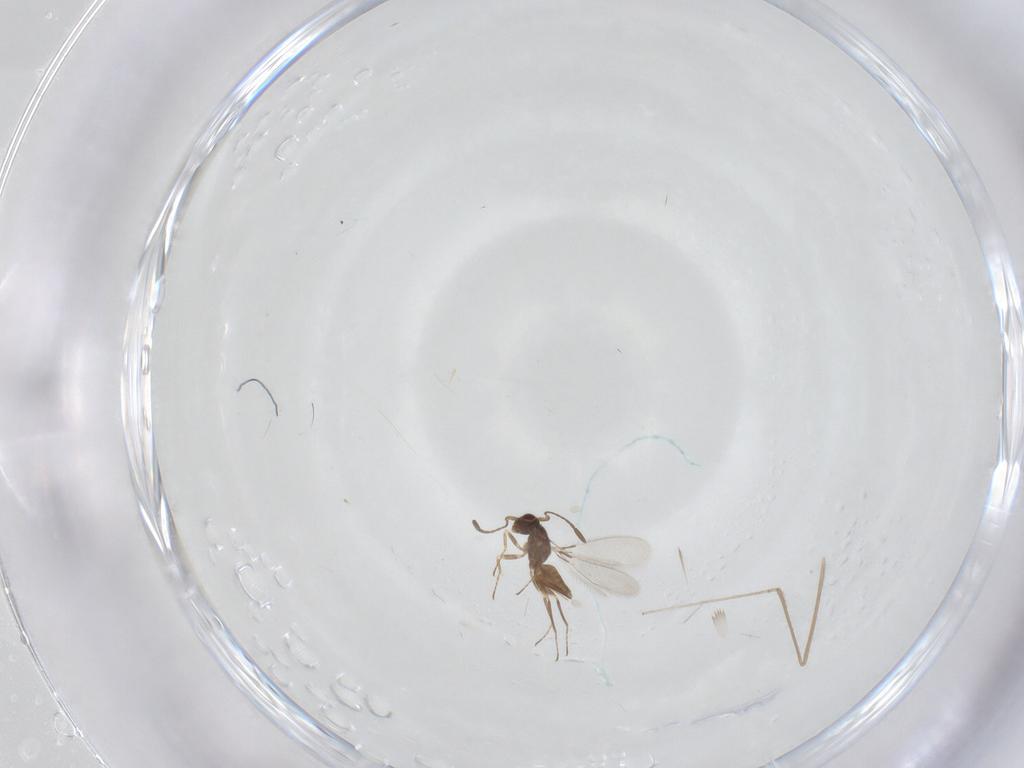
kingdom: Animalia
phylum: Arthropoda
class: Insecta
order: Hymenoptera
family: Mymaridae
